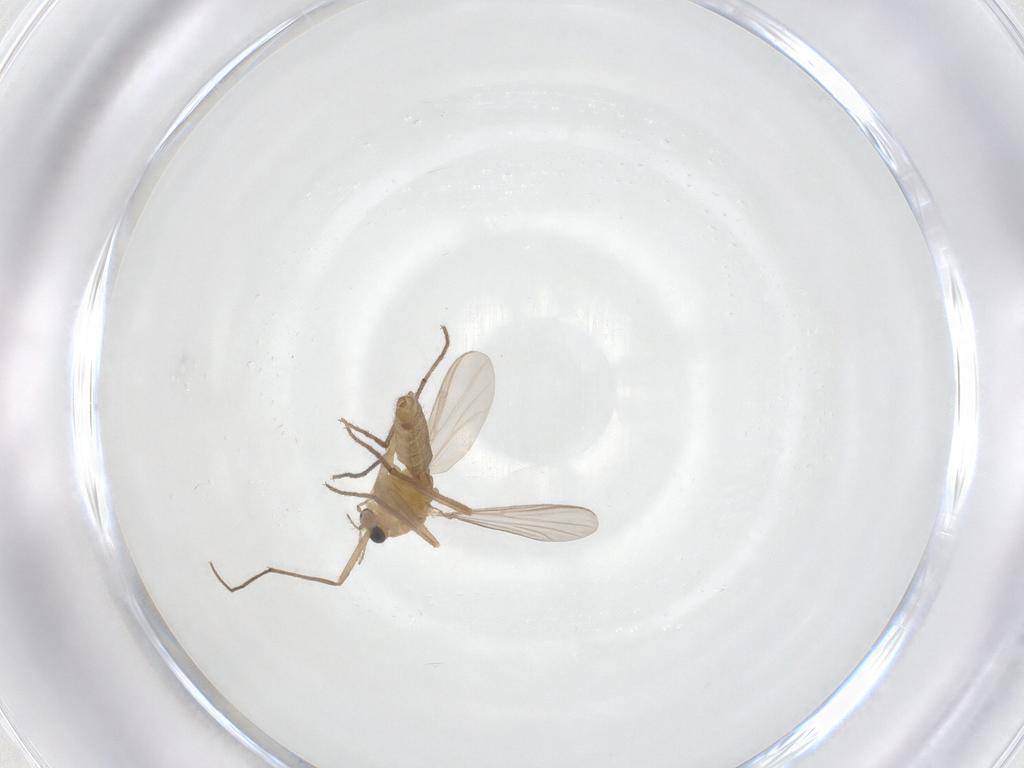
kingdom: Animalia
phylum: Arthropoda
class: Insecta
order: Diptera
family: Chironomidae
